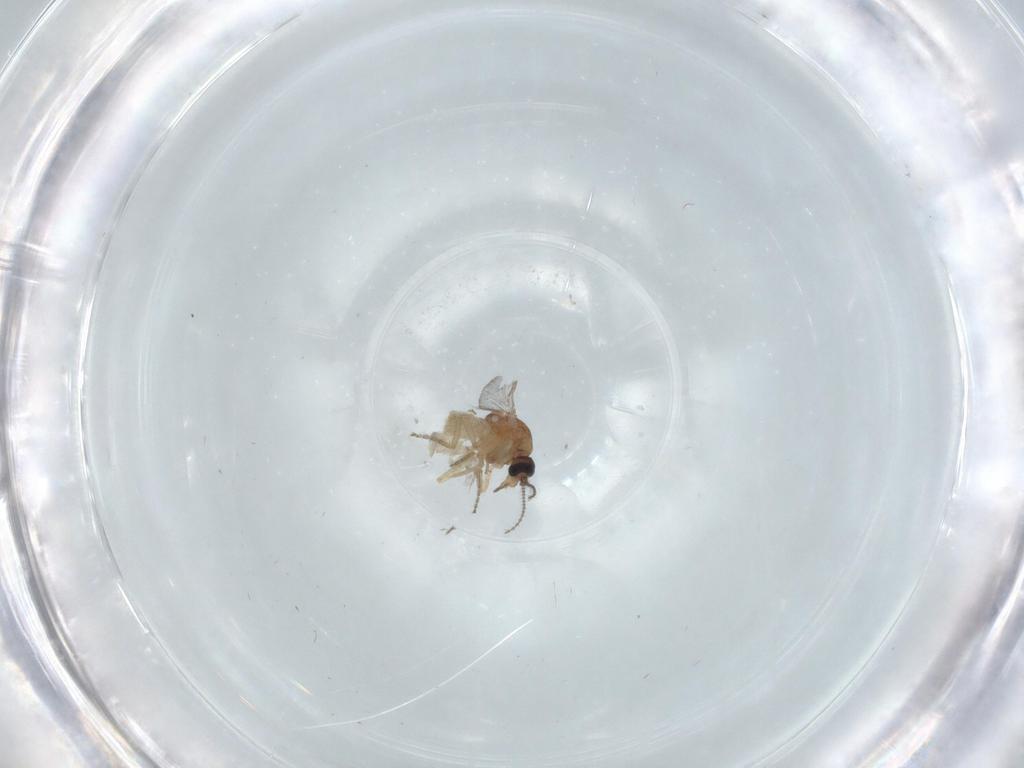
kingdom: Animalia
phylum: Arthropoda
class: Insecta
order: Diptera
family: Ceratopogonidae
